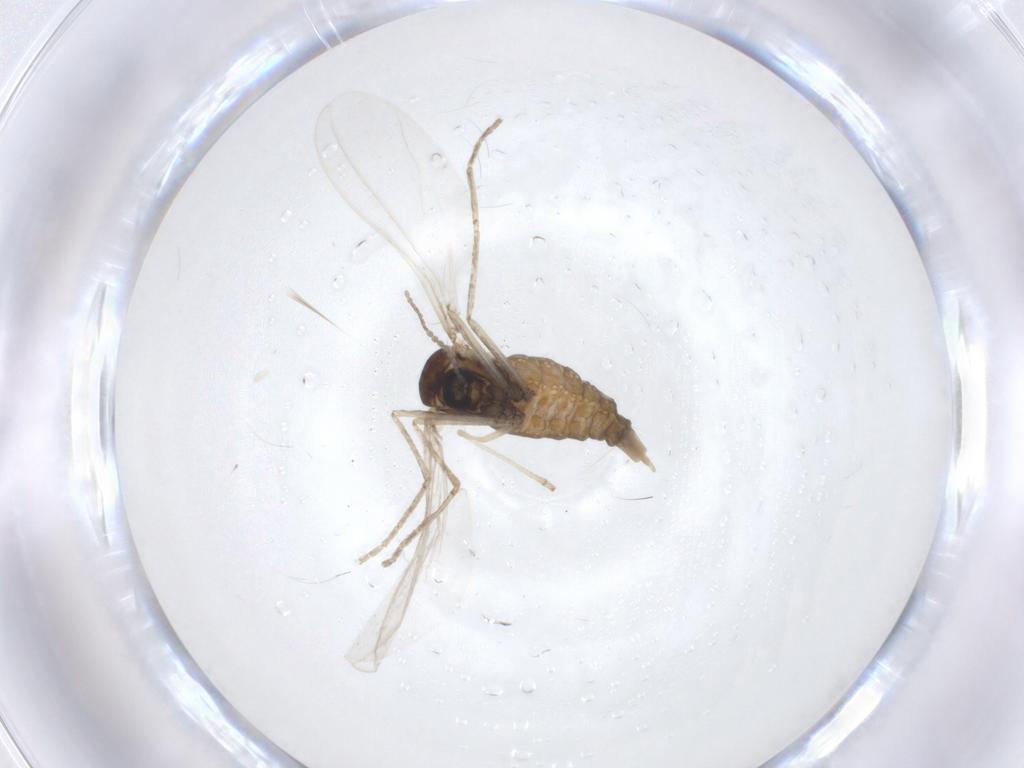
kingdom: Animalia
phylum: Arthropoda
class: Insecta
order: Diptera
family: Cecidomyiidae
